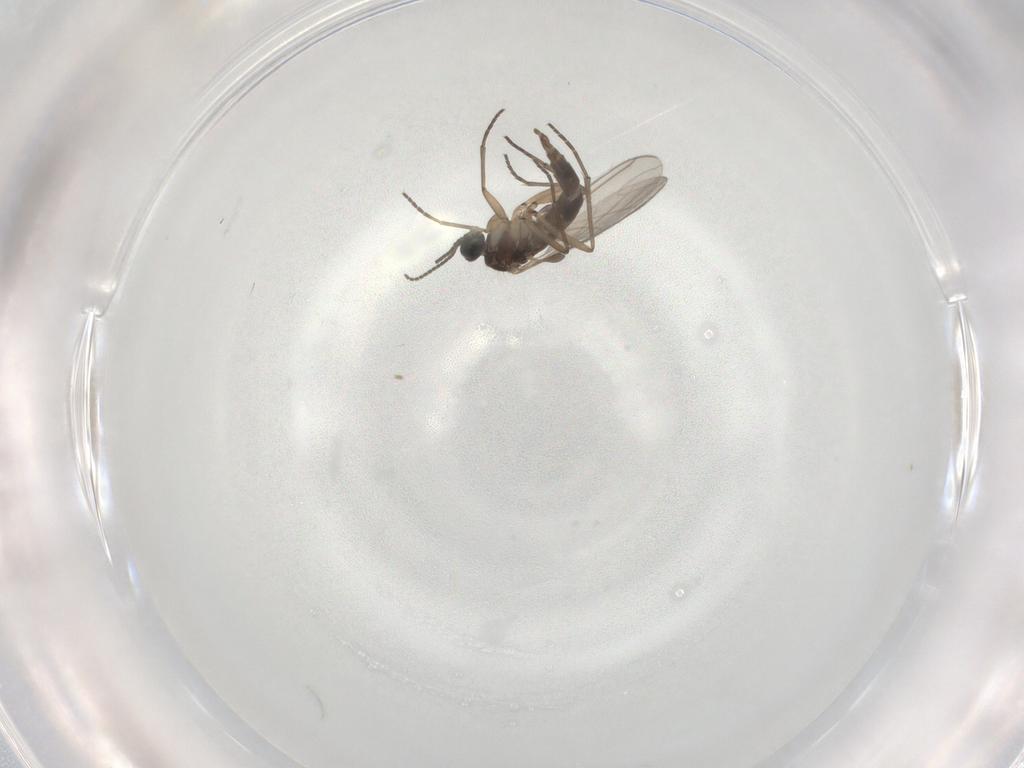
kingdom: Animalia
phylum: Arthropoda
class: Insecta
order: Diptera
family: Sciaridae
